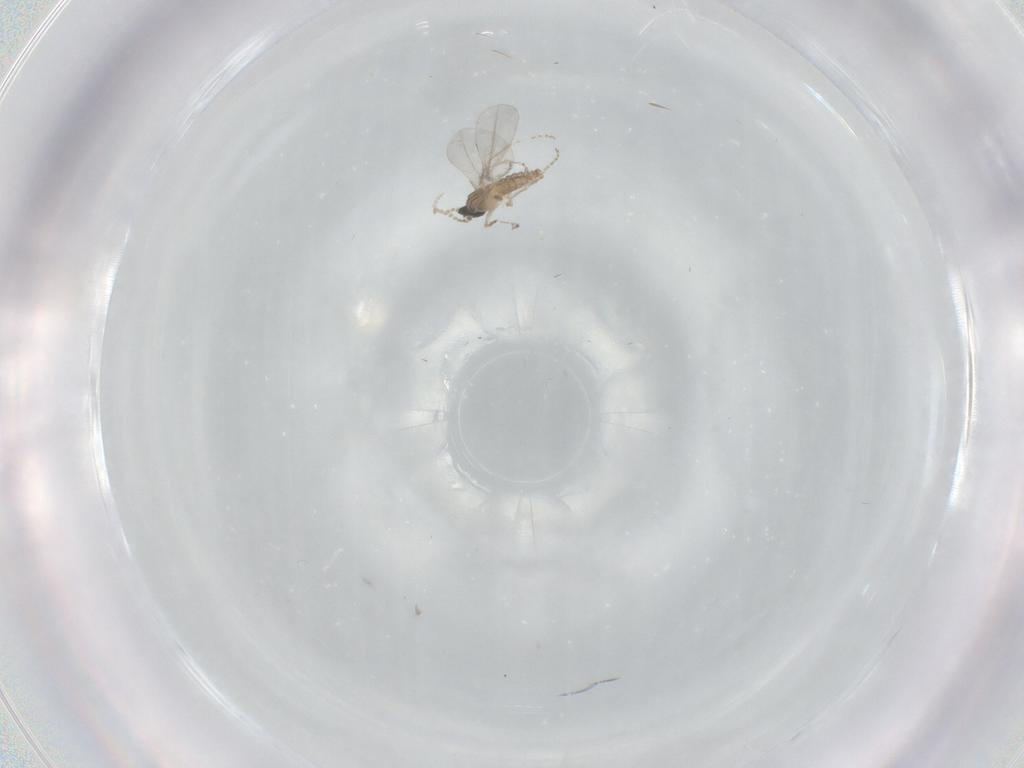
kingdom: Animalia
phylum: Arthropoda
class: Insecta
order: Diptera
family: Cecidomyiidae
